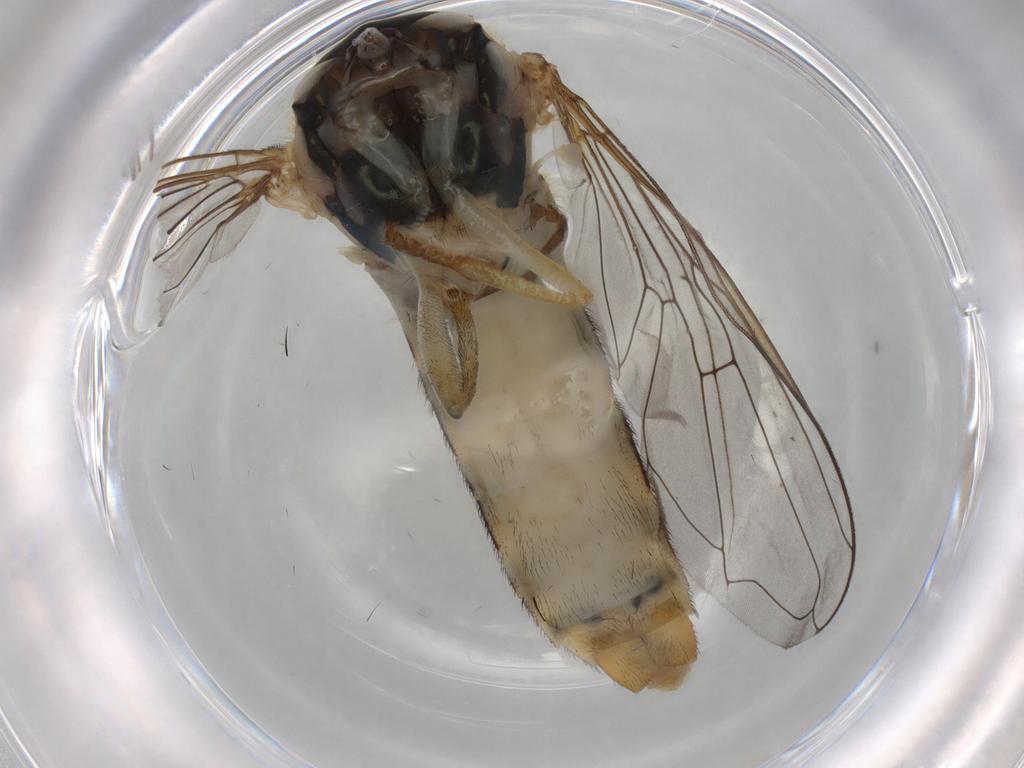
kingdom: Animalia
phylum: Arthropoda
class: Insecta
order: Diptera
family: Syrphidae
